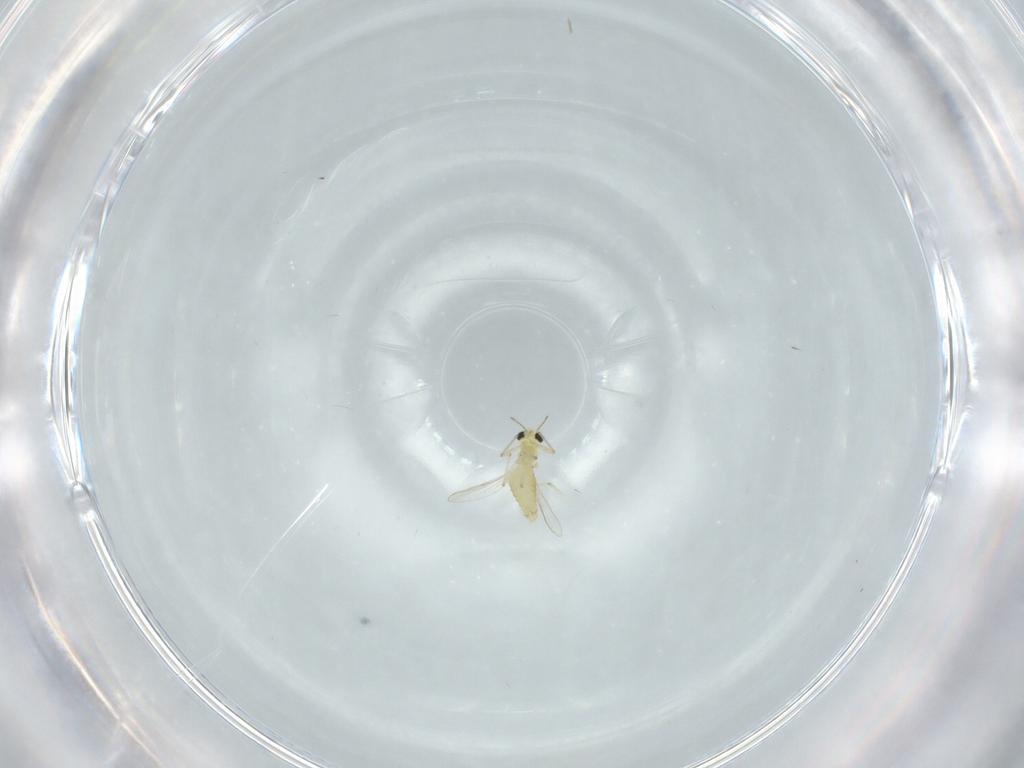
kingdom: Animalia
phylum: Arthropoda
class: Insecta
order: Diptera
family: Chironomidae
